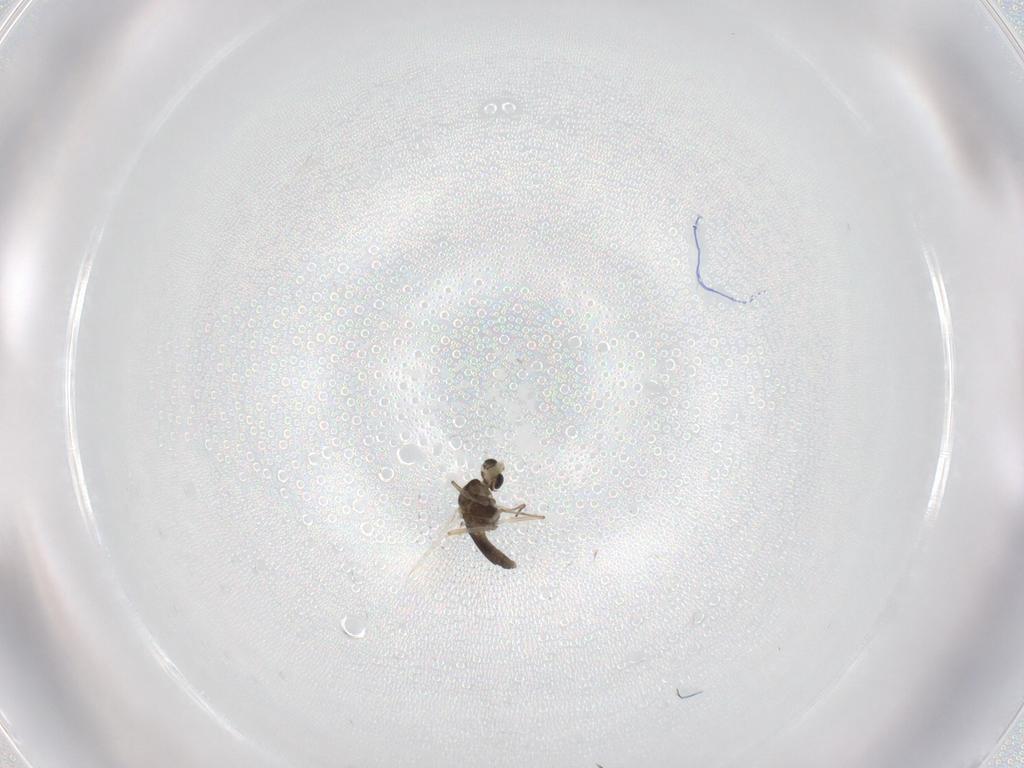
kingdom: Animalia
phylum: Arthropoda
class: Insecta
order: Diptera
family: Chironomidae
